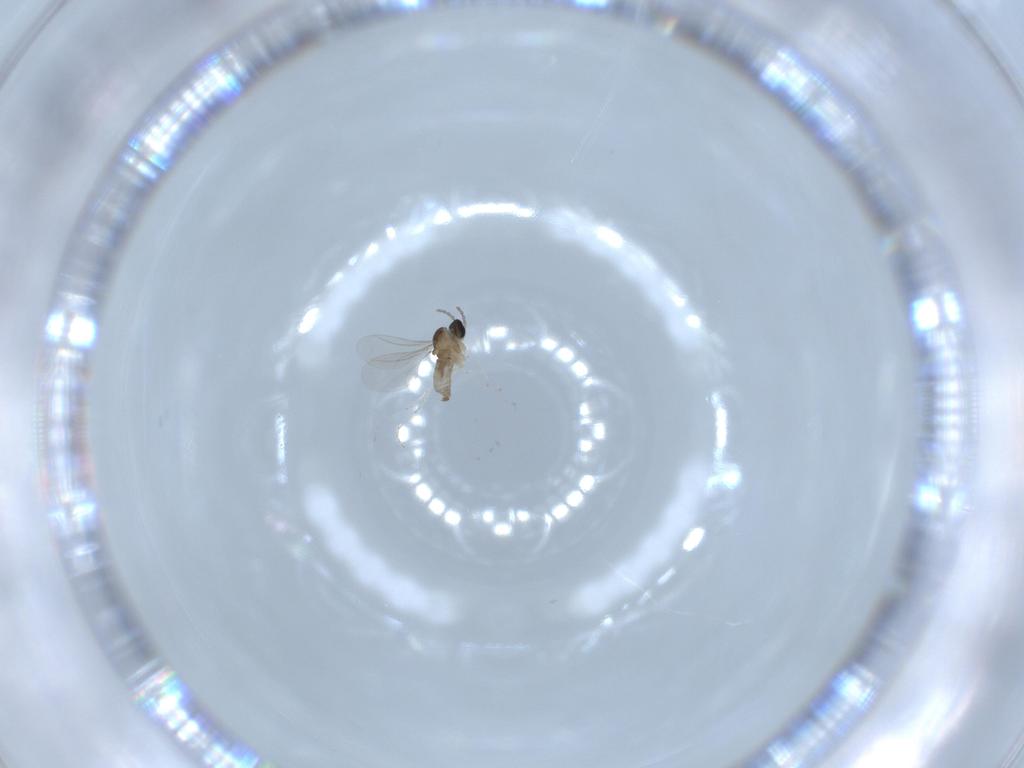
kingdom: Animalia
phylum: Arthropoda
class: Insecta
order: Diptera
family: Cecidomyiidae
